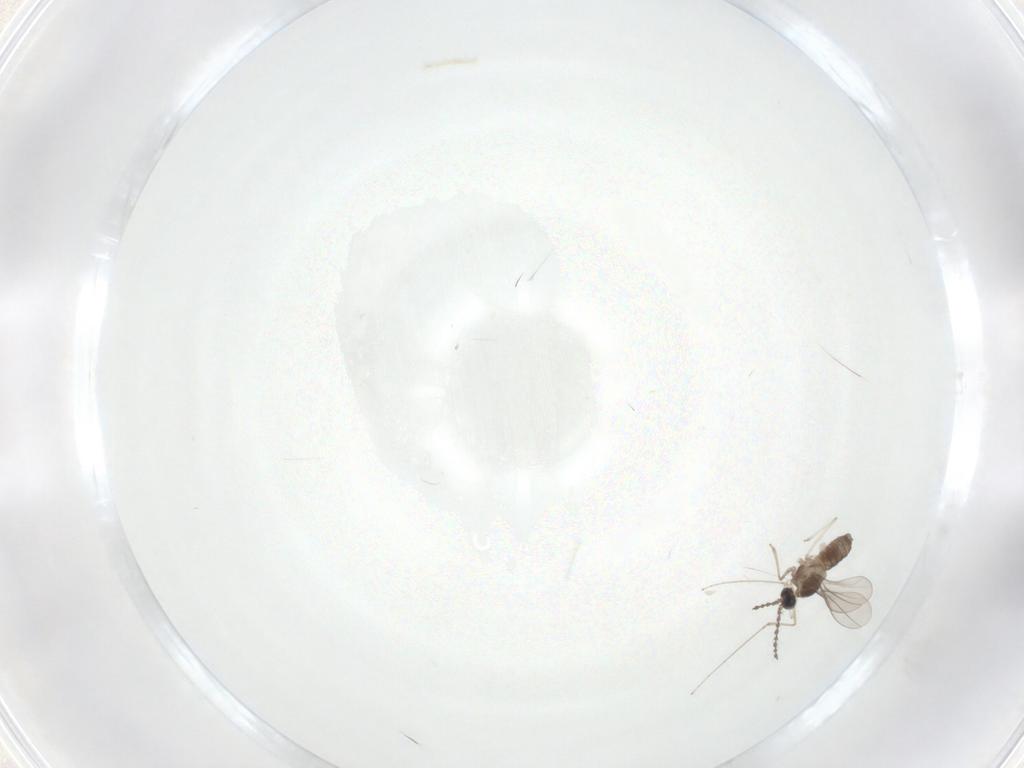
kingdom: Animalia
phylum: Arthropoda
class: Insecta
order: Diptera
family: Cecidomyiidae
